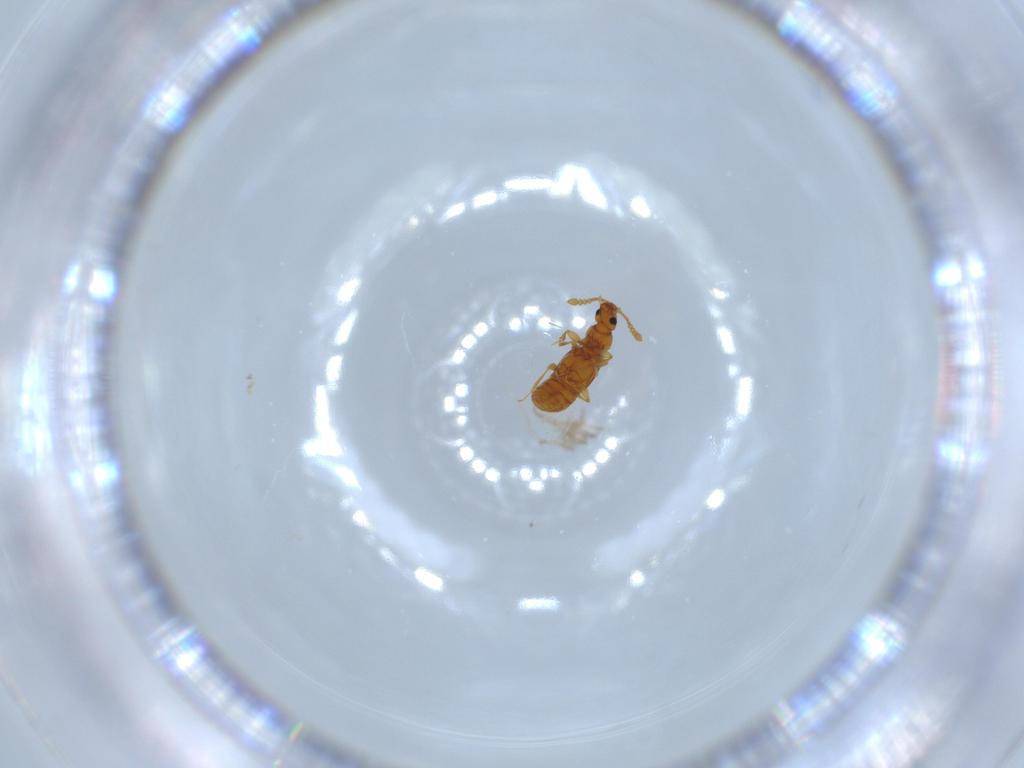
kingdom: Animalia
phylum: Arthropoda
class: Insecta
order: Coleoptera
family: Staphylinidae
